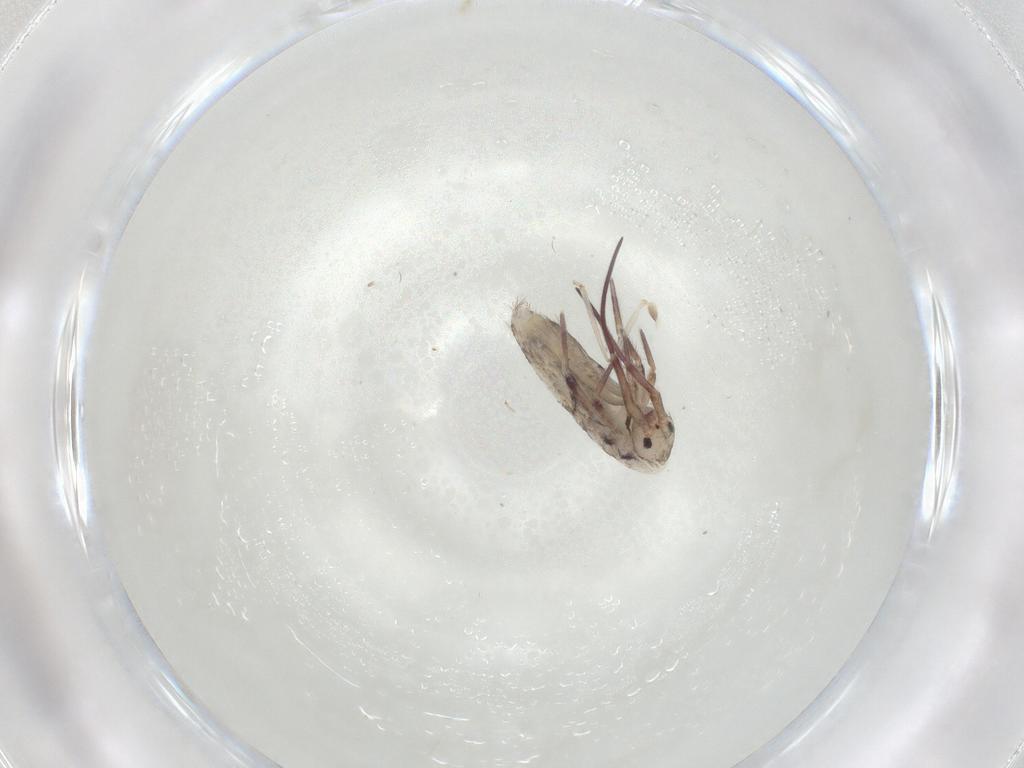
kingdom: Animalia
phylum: Arthropoda
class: Collembola
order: Entomobryomorpha
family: Entomobryidae
